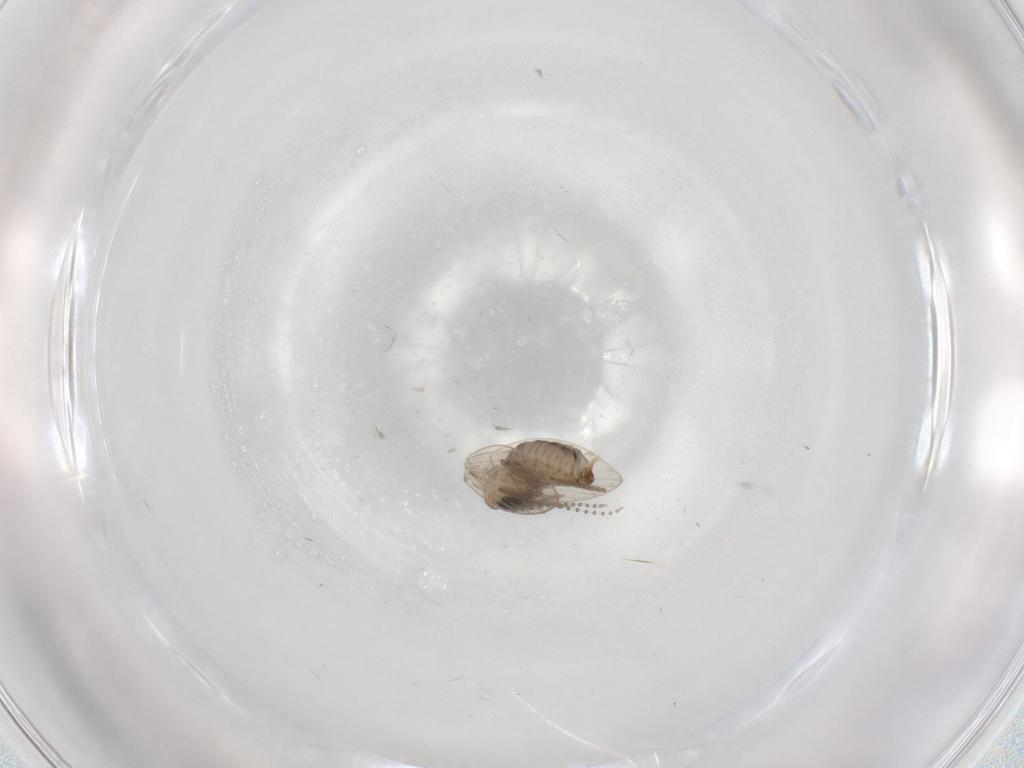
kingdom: Animalia
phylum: Arthropoda
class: Insecta
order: Diptera
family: Psychodidae
